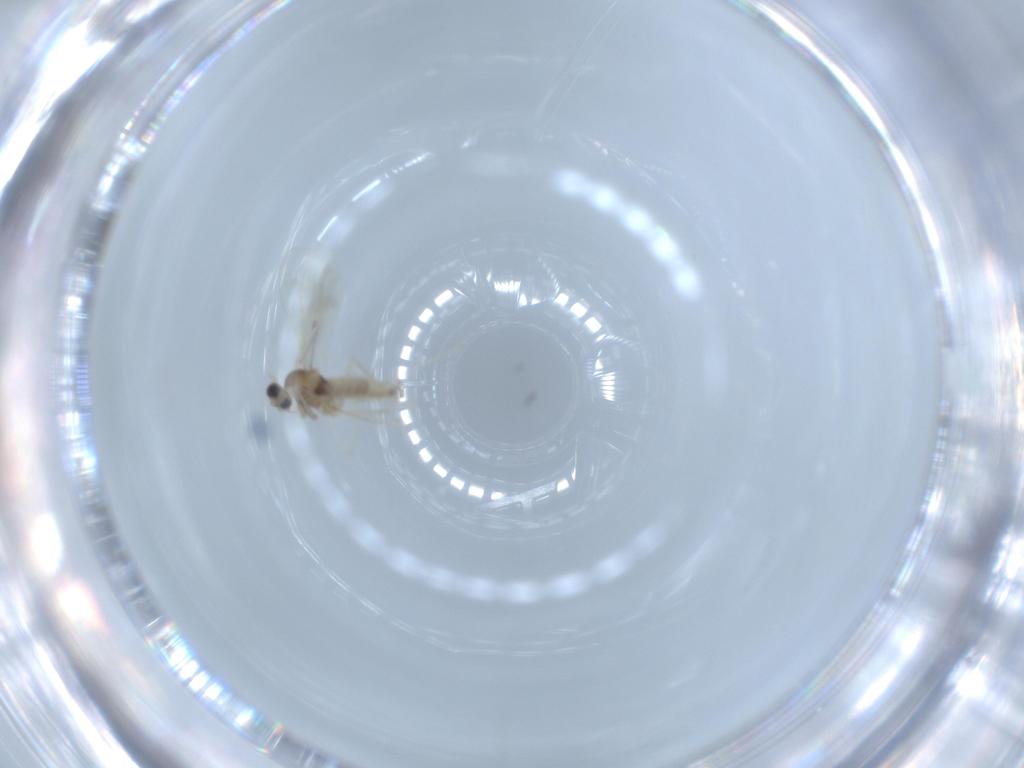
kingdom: Animalia
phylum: Arthropoda
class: Insecta
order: Diptera
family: Cecidomyiidae
